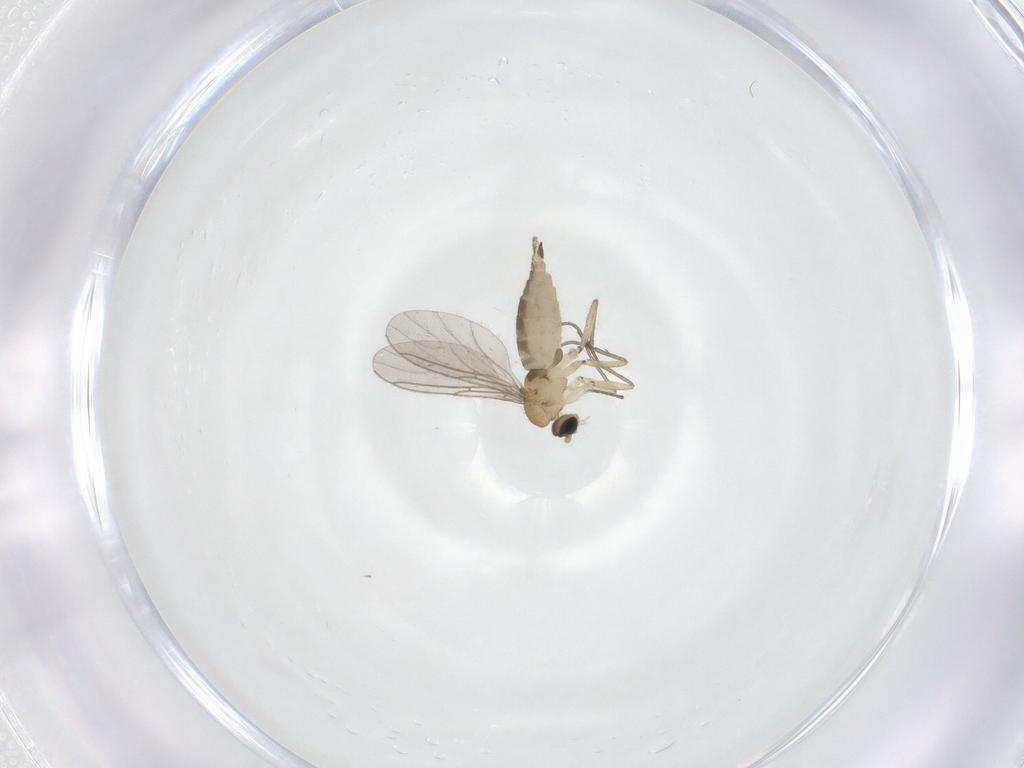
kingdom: Animalia
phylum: Arthropoda
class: Insecta
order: Diptera
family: Sciaridae
